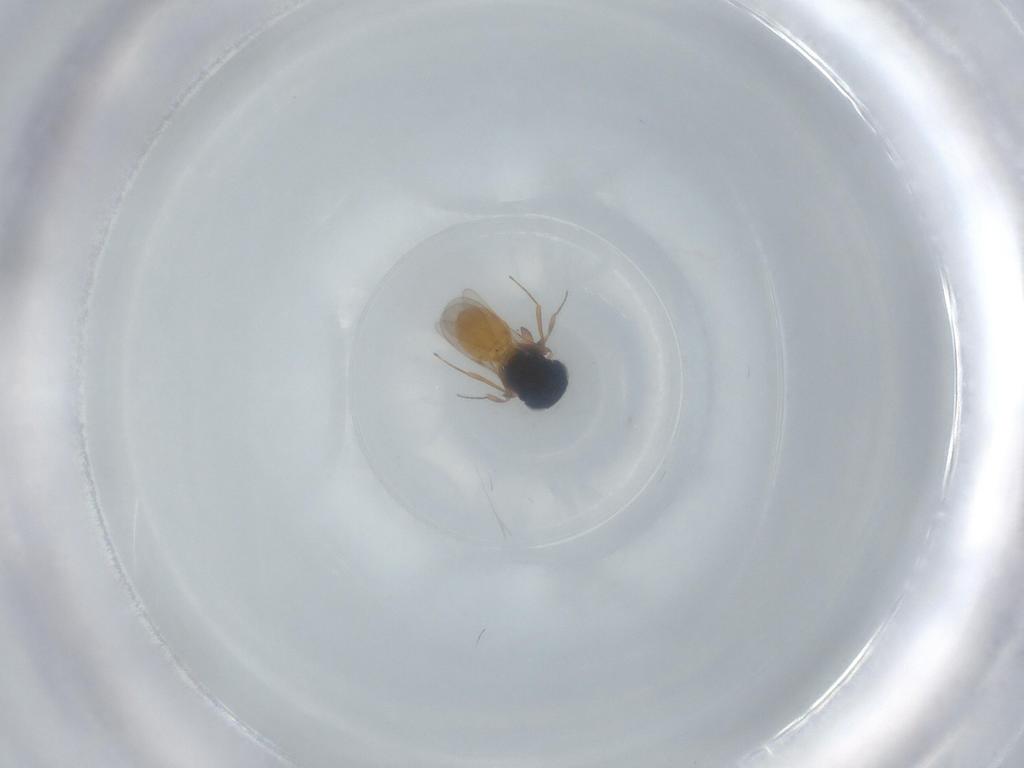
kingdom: Animalia
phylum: Arthropoda
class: Insecta
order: Hymenoptera
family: Scelionidae
